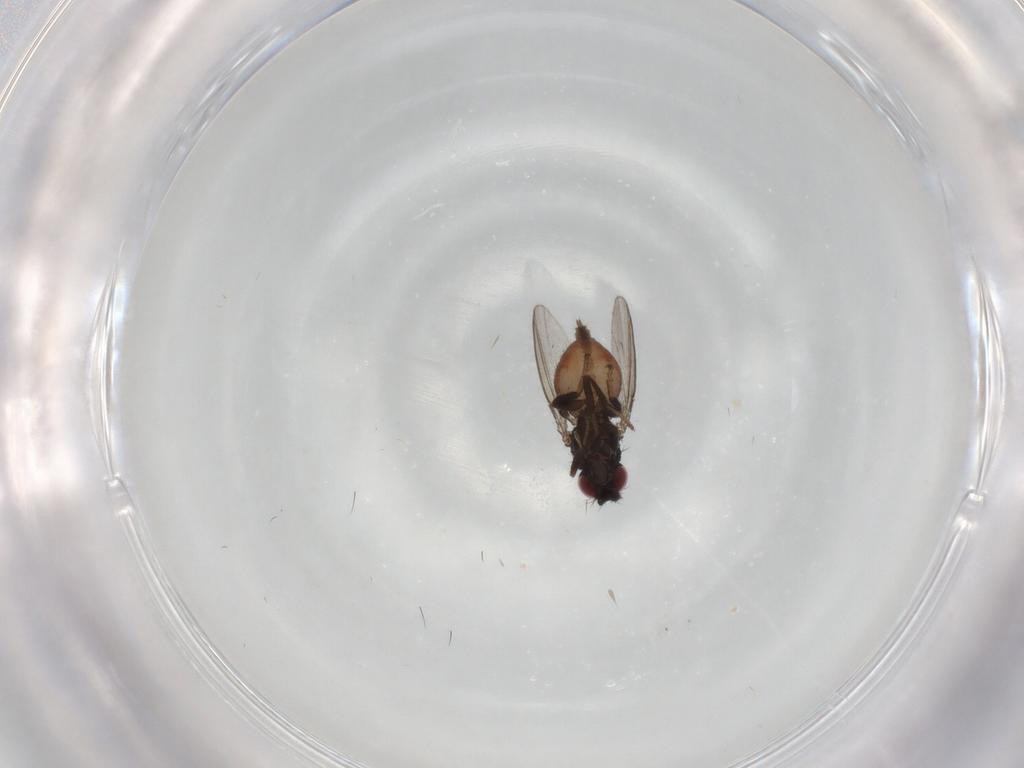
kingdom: Animalia
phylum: Arthropoda
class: Insecta
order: Diptera
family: Milichiidae
